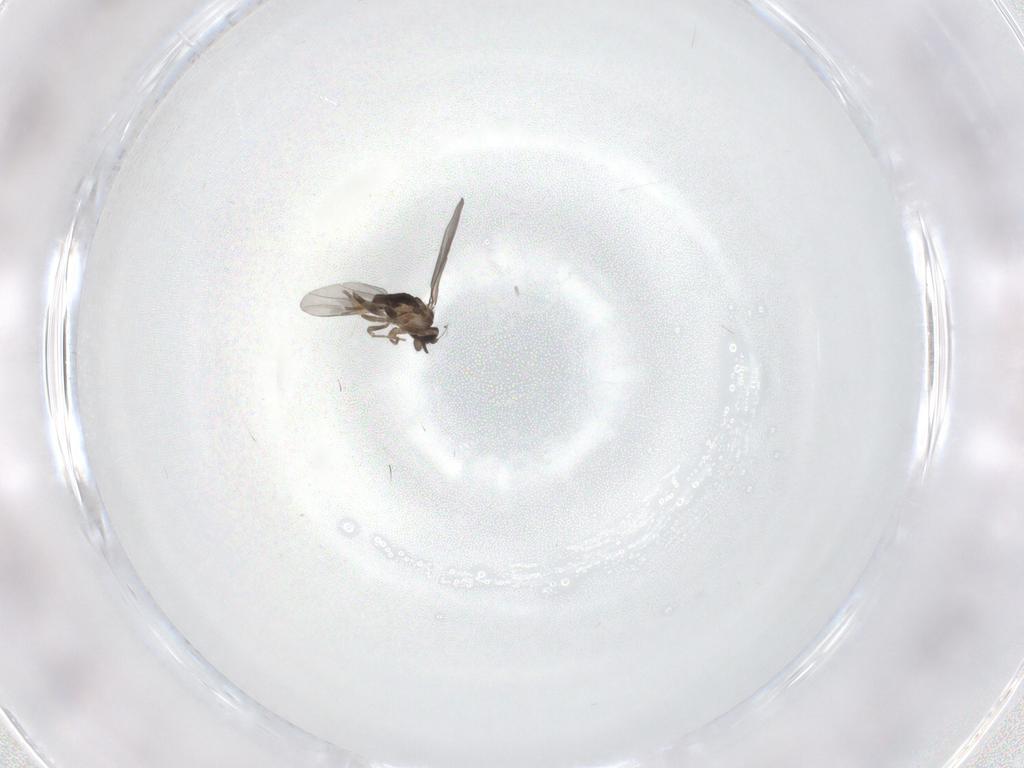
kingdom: Animalia
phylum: Arthropoda
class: Insecta
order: Diptera
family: Cecidomyiidae
